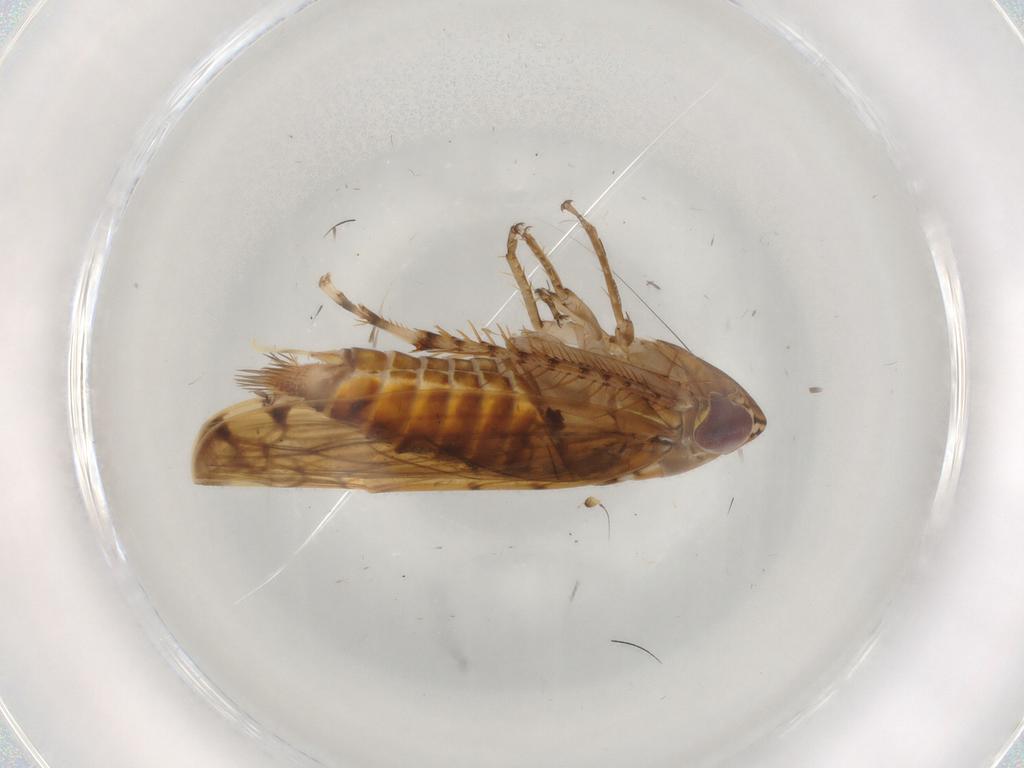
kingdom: Animalia
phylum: Arthropoda
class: Insecta
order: Hemiptera
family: Cicadellidae
